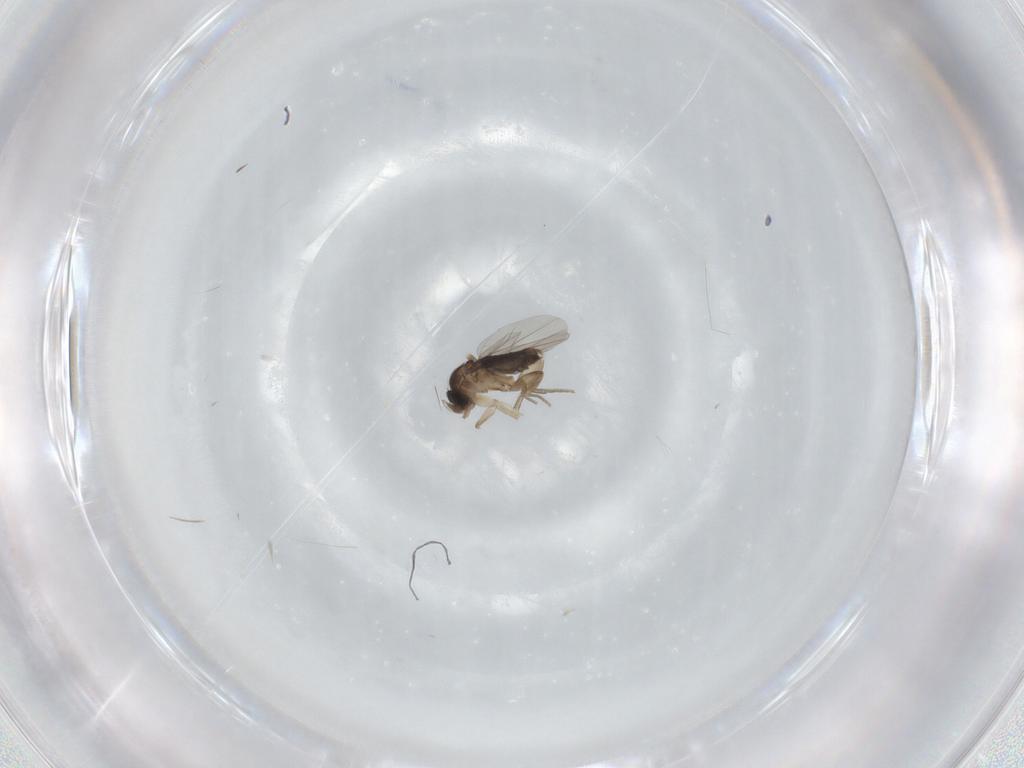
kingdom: Animalia
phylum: Arthropoda
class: Insecta
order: Diptera
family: Phoridae
